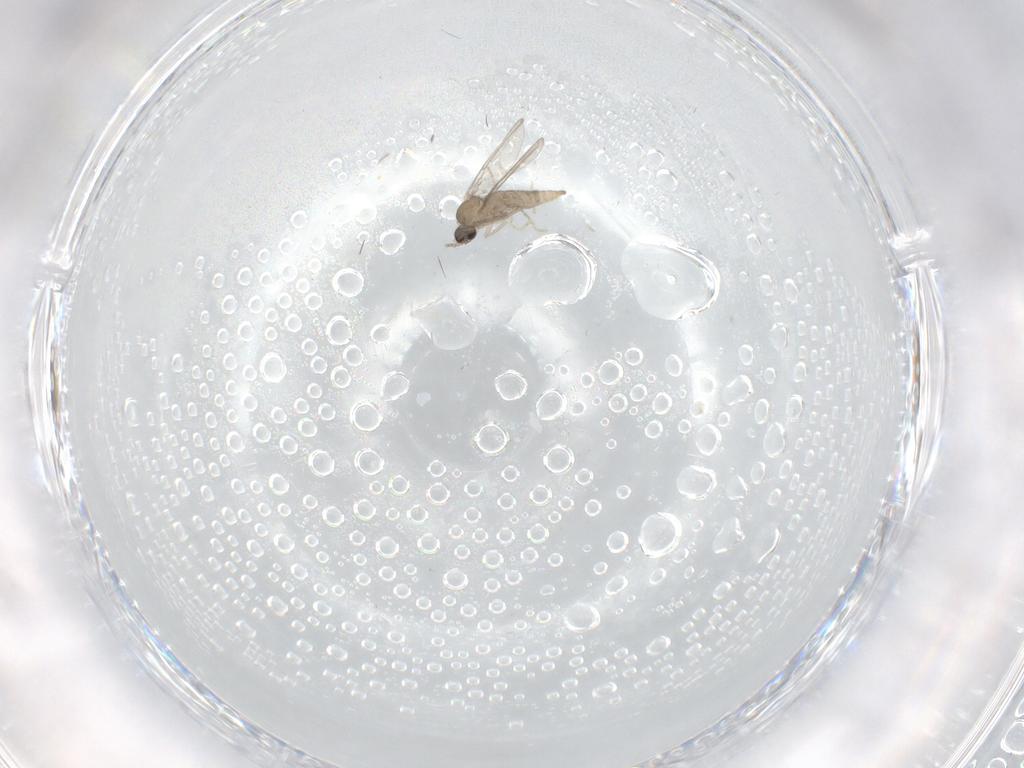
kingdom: Animalia
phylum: Arthropoda
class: Insecta
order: Diptera
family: Cecidomyiidae
